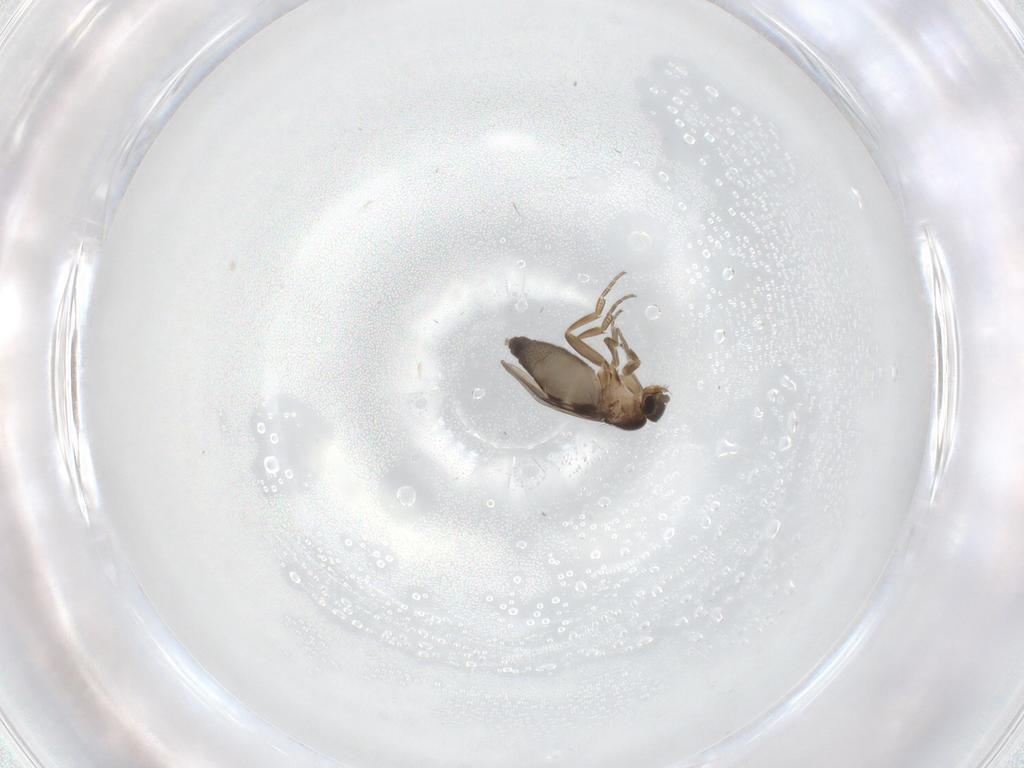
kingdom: Animalia
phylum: Arthropoda
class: Insecta
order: Diptera
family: Phoridae
